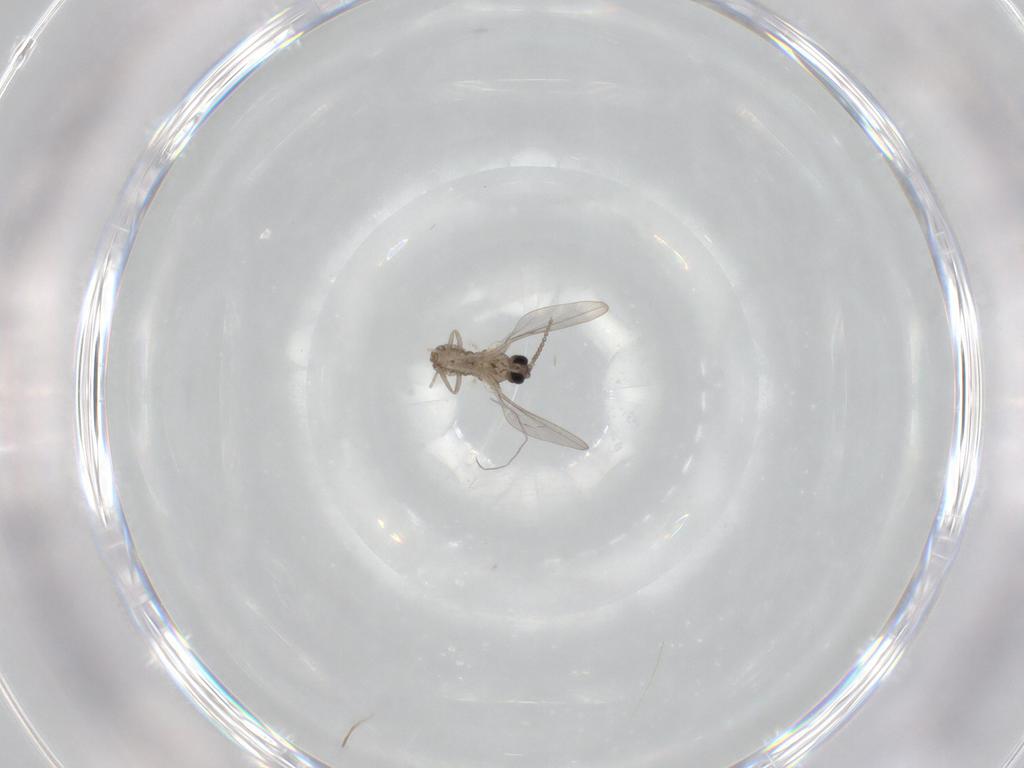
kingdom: Animalia
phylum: Arthropoda
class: Insecta
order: Diptera
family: Cecidomyiidae
